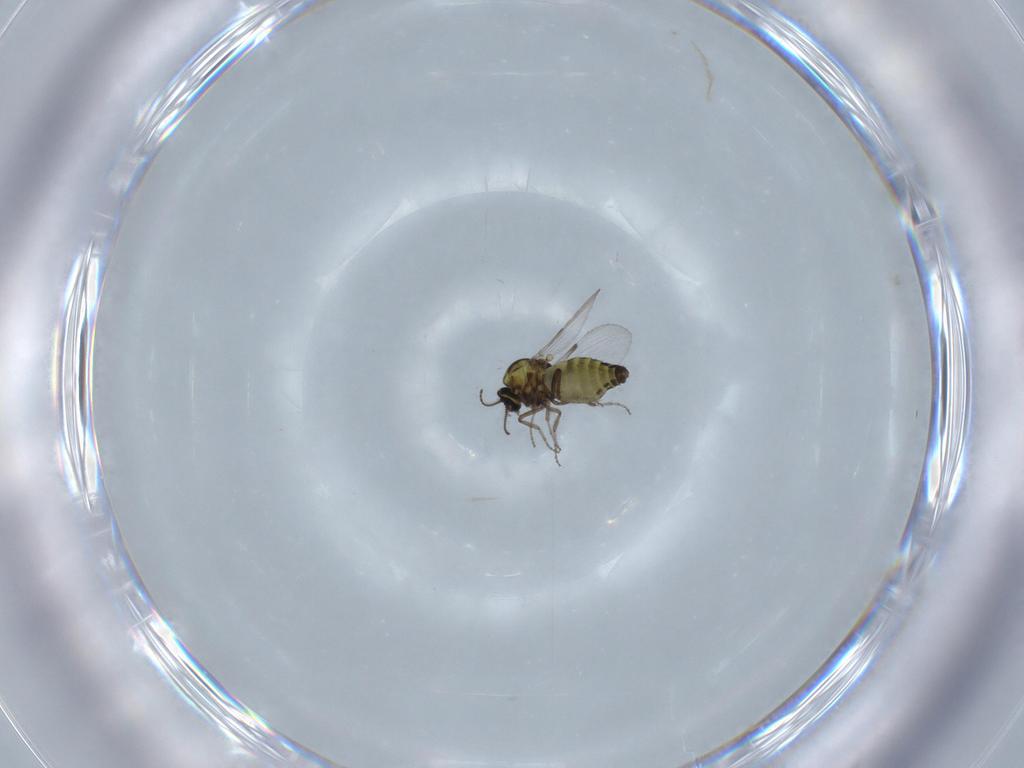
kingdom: Animalia
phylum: Arthropoda
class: Insecta
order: Diptera
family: Ceratopogonidae
